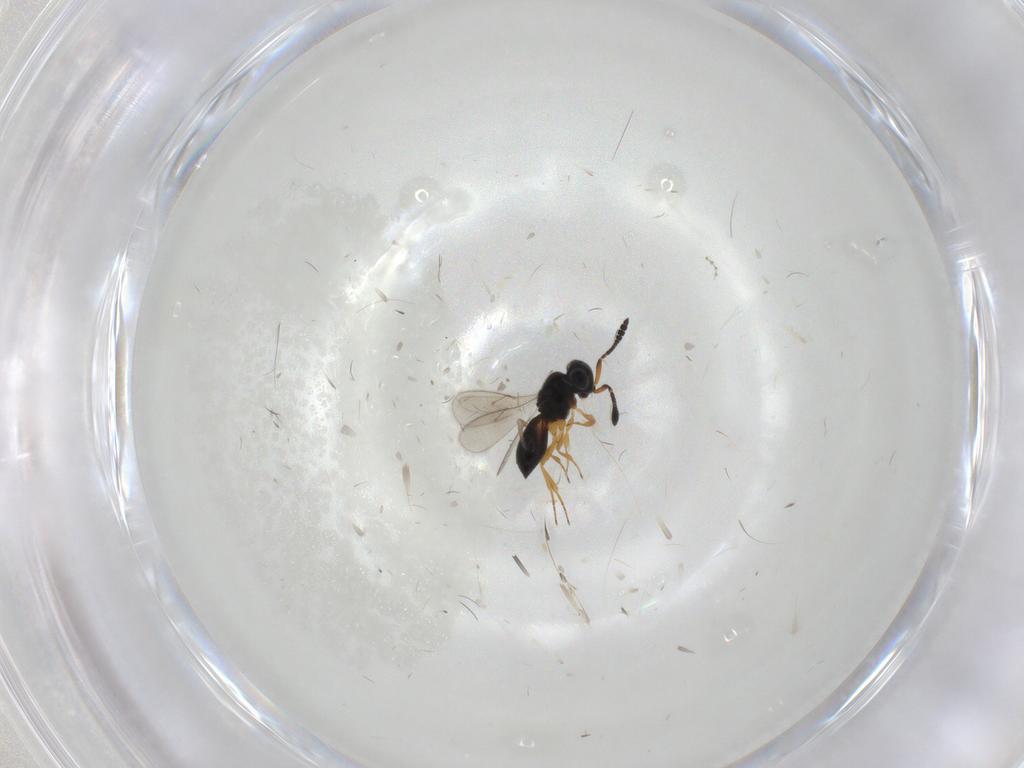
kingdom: Animalia
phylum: Arthropoda
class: Insecta
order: Hymenoptera
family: Scelionidae
